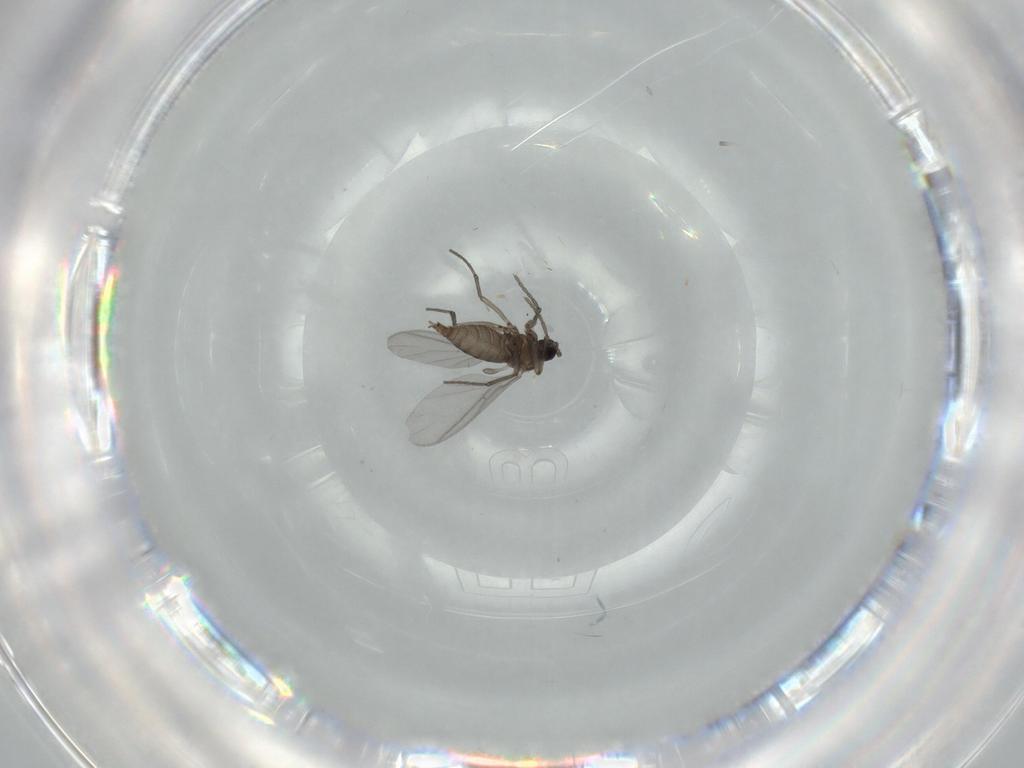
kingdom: Animalia
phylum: Arthropoda
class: Insecta
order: Diptera
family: Sciaridae
